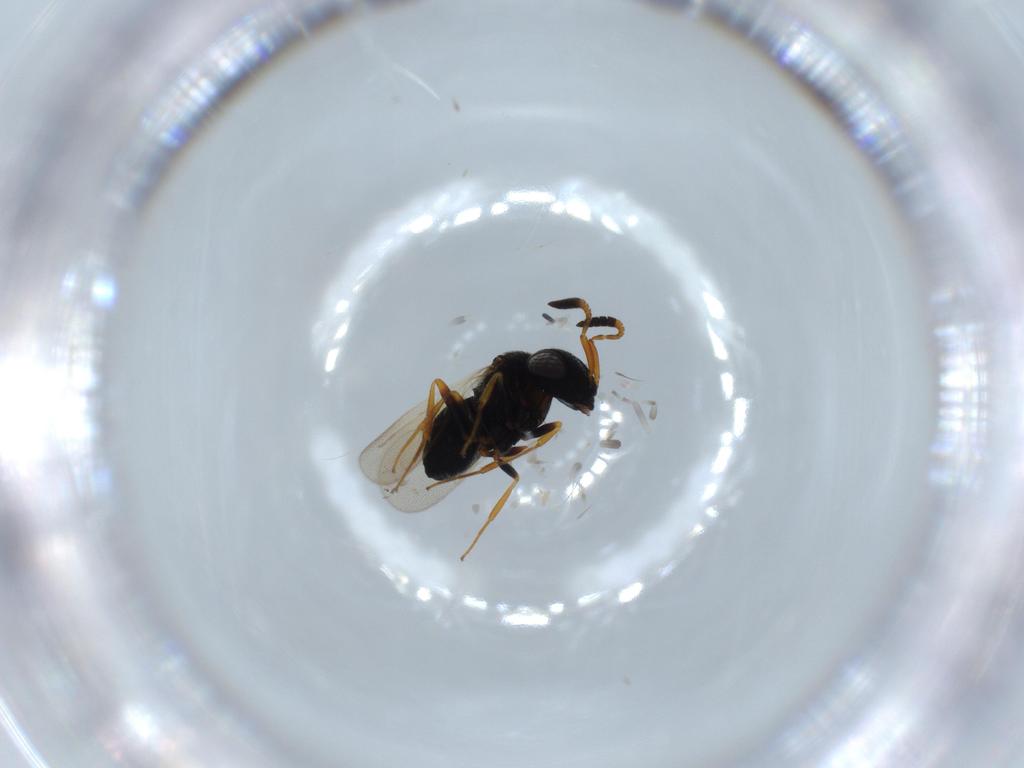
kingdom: Animalia
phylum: Arthropoda
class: Insecta
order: Hymenoptera
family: Scelionidae
